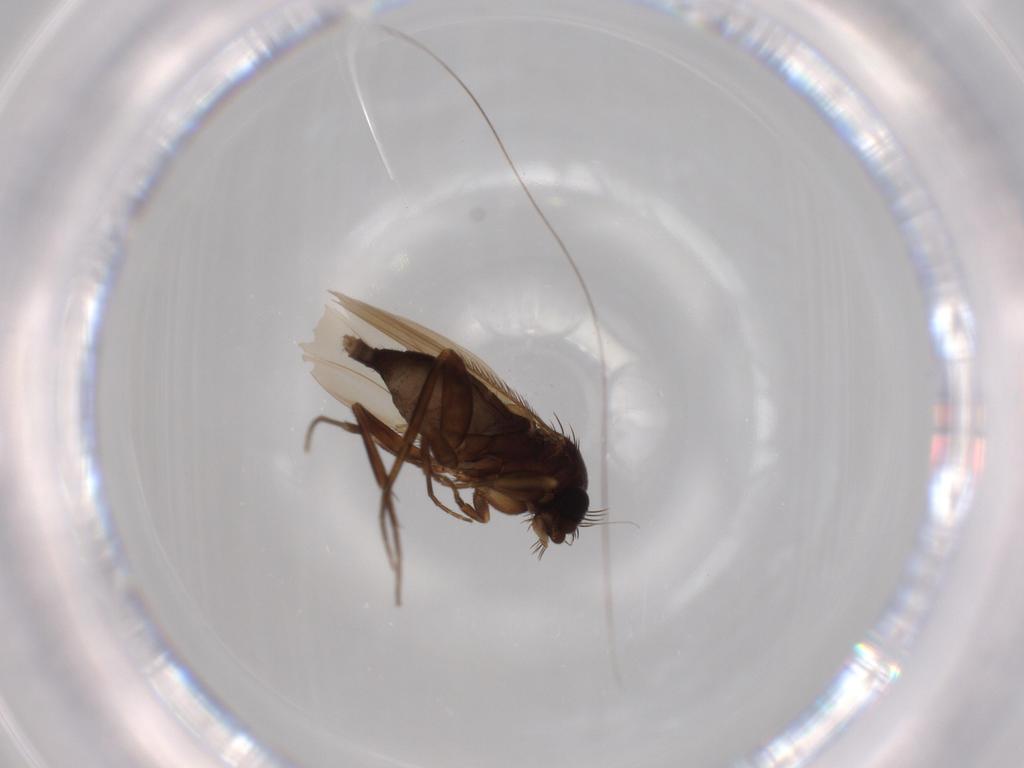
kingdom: Animalia
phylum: Arthropoda
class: Insecta
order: Diptera
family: Phoridae
